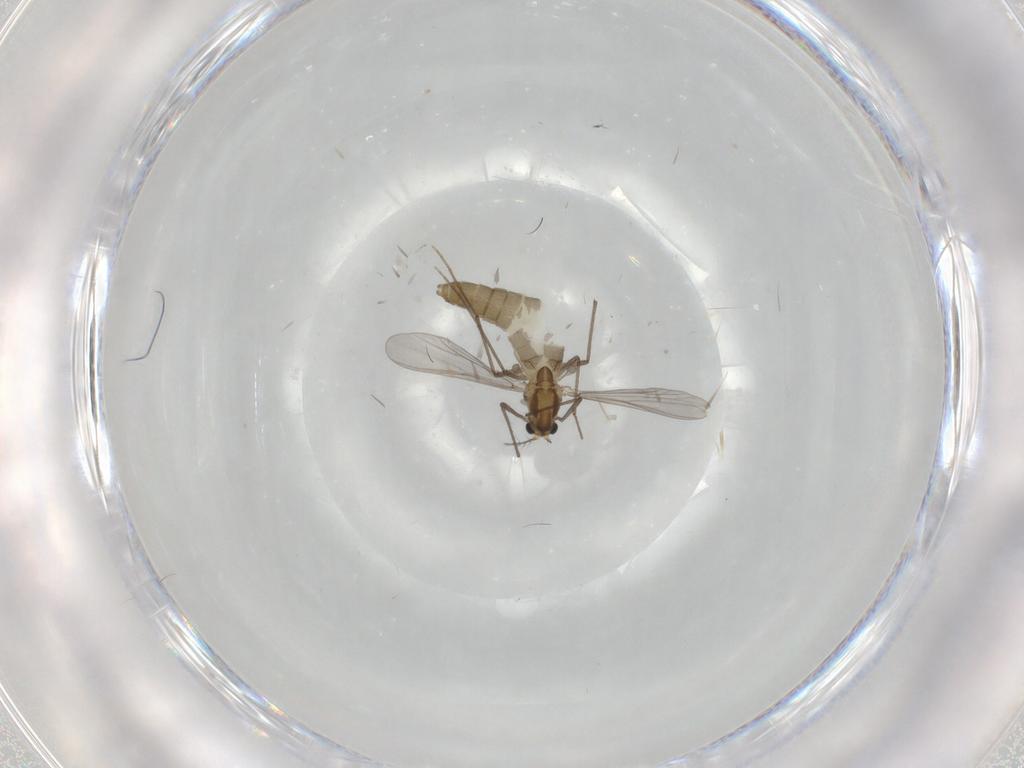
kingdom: Animalia
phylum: Arthropoda
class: Insecta
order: Diptera
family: Chironomidae
